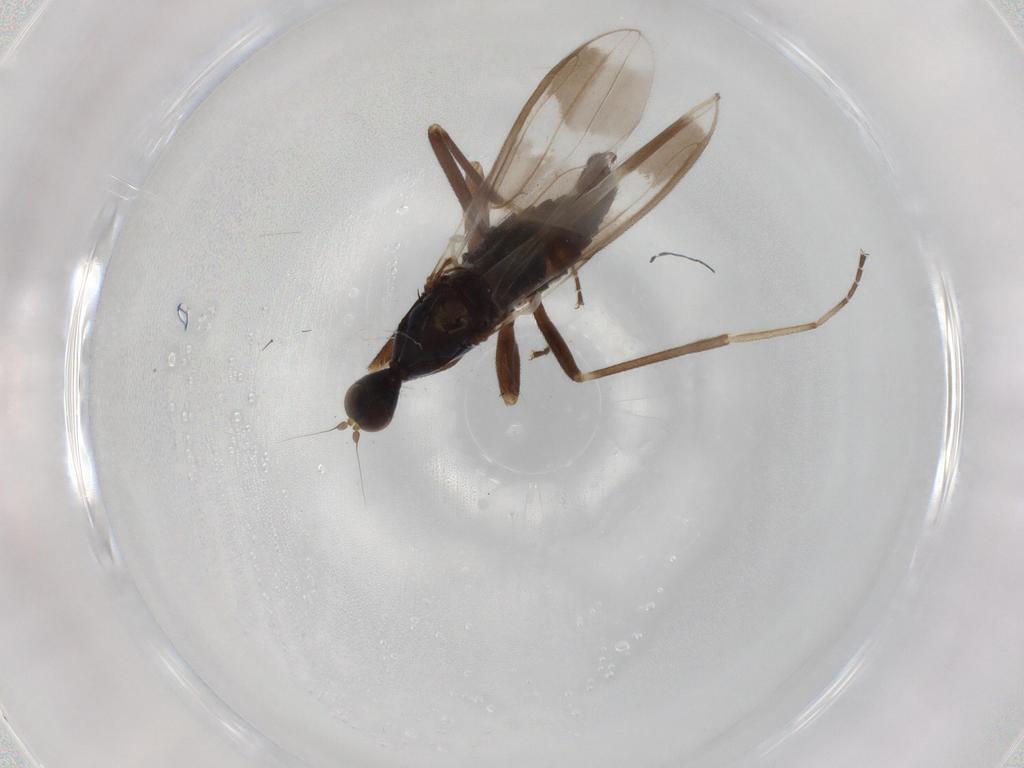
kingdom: Animalia
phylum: Arthropoda
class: Insecta
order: Diptera
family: Hybotidae
